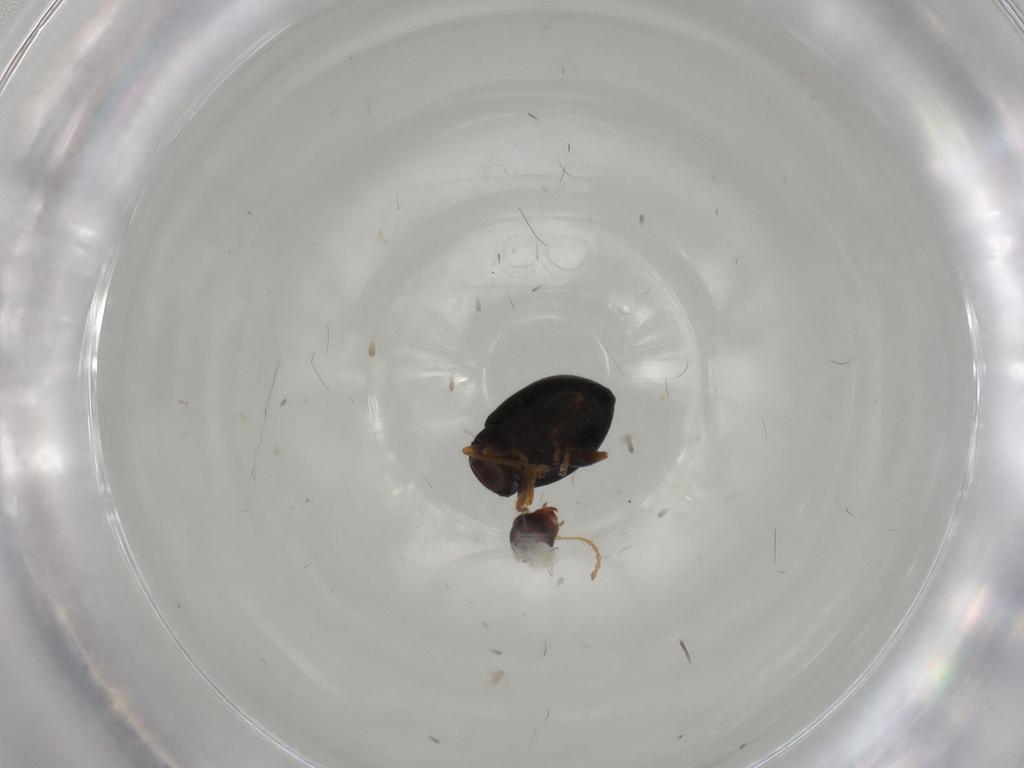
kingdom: Animalia
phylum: Arthropoda
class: Insecta
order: Coleoptera
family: Chrysomelidae
